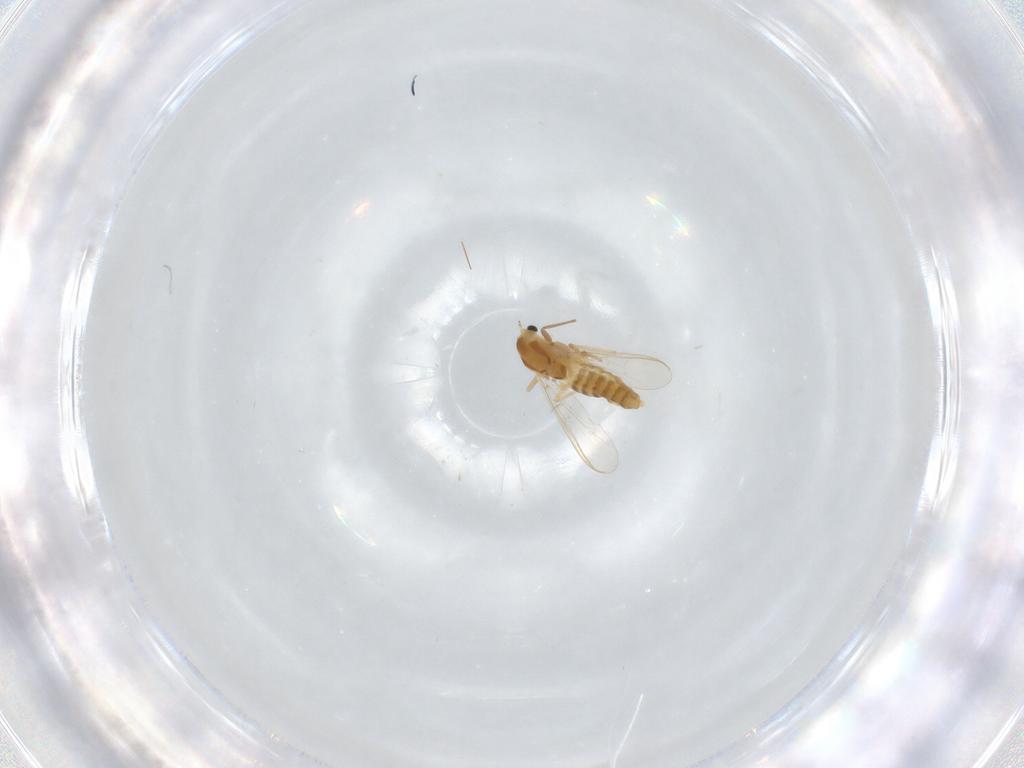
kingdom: Animalia
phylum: Arthropoda
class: Insecta
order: Diptera
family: Chironomidae
